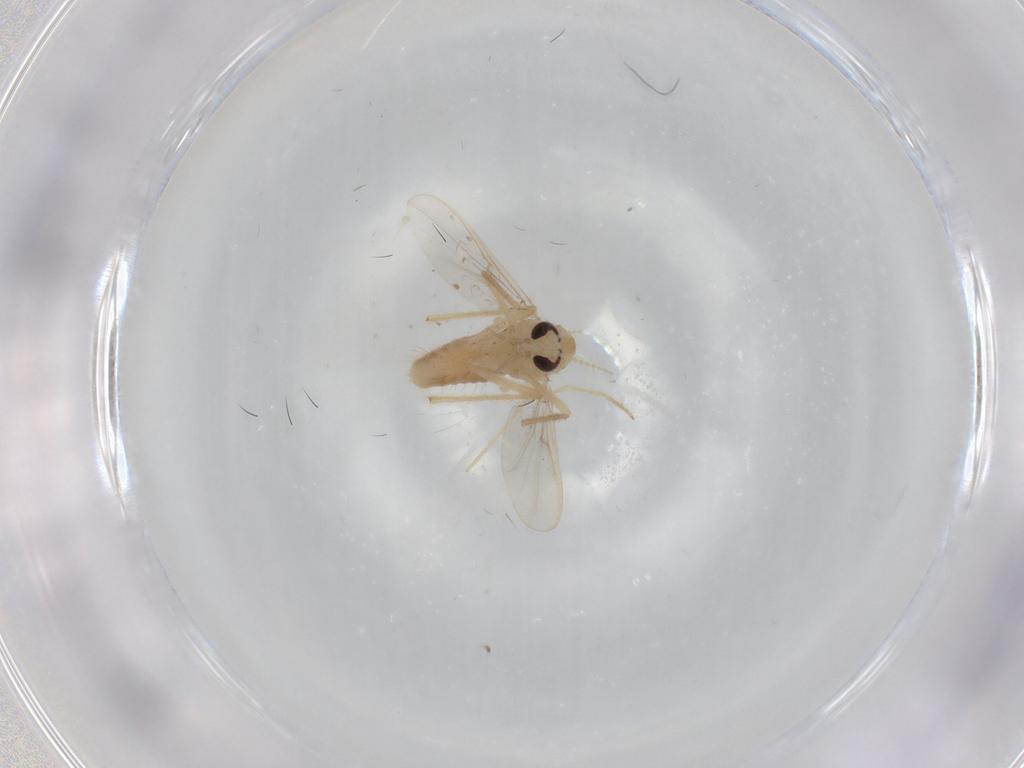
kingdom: Animalia
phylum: Arthropoda
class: Insecta
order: Diptera
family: Chironomidae
